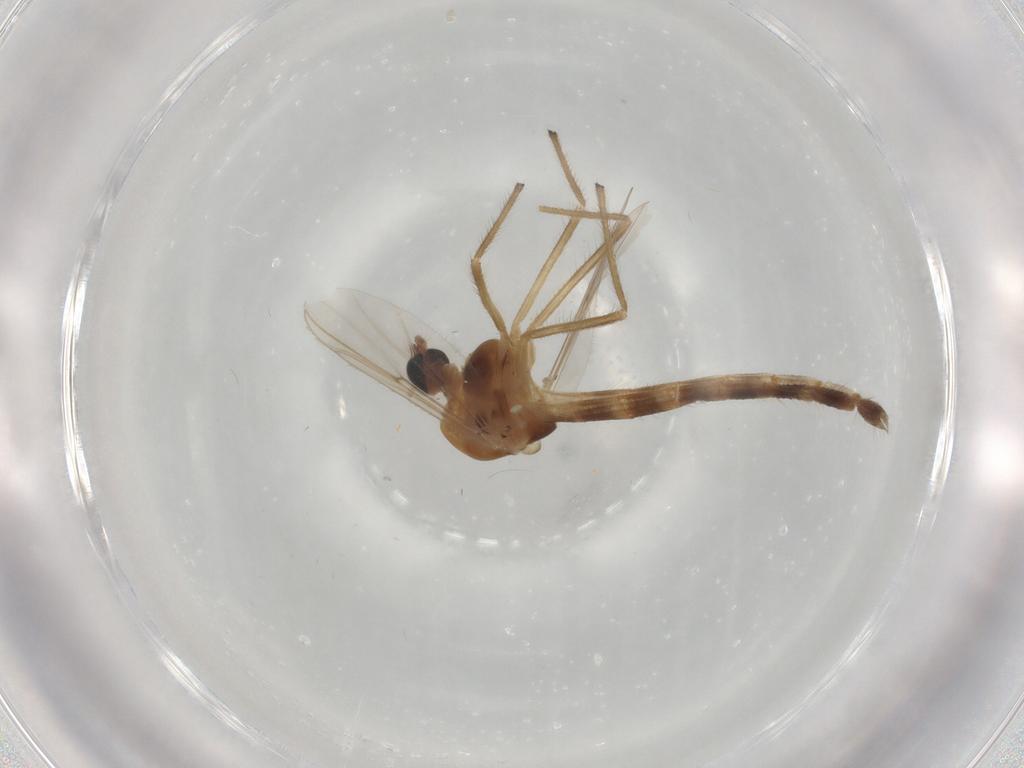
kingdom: Animalia
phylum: Arthropoda
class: Insecta
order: Diptera
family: Chironomidae
